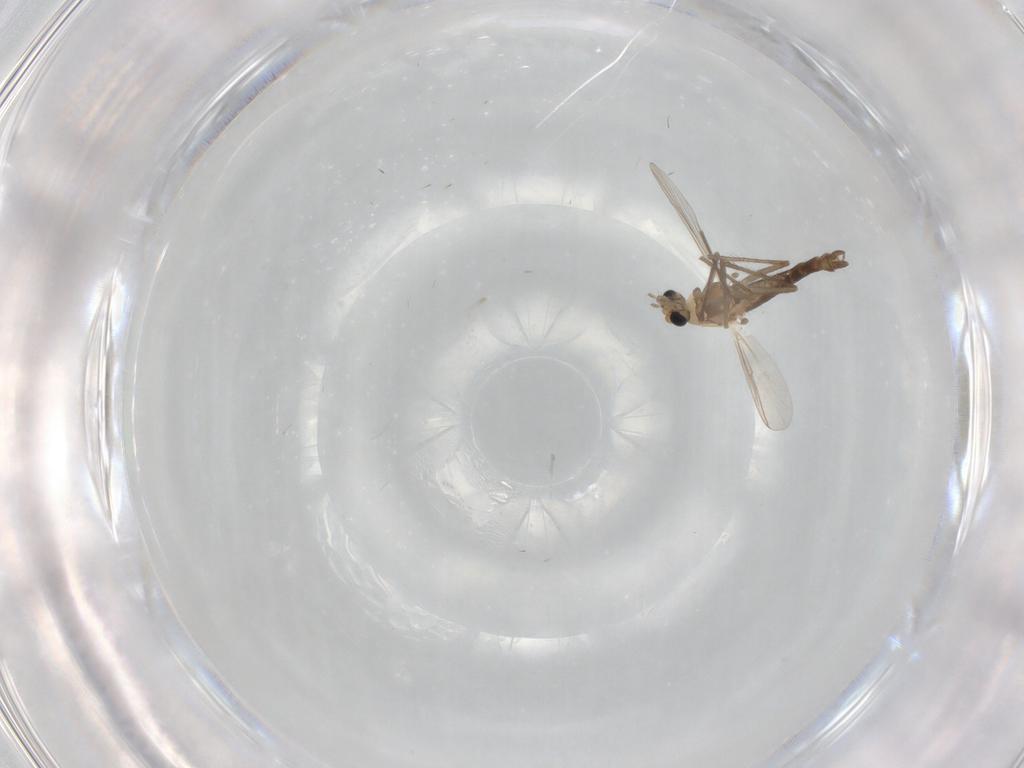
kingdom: Animalia
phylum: Arthropoda
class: Insecta
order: Diptera
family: Chironomidae
